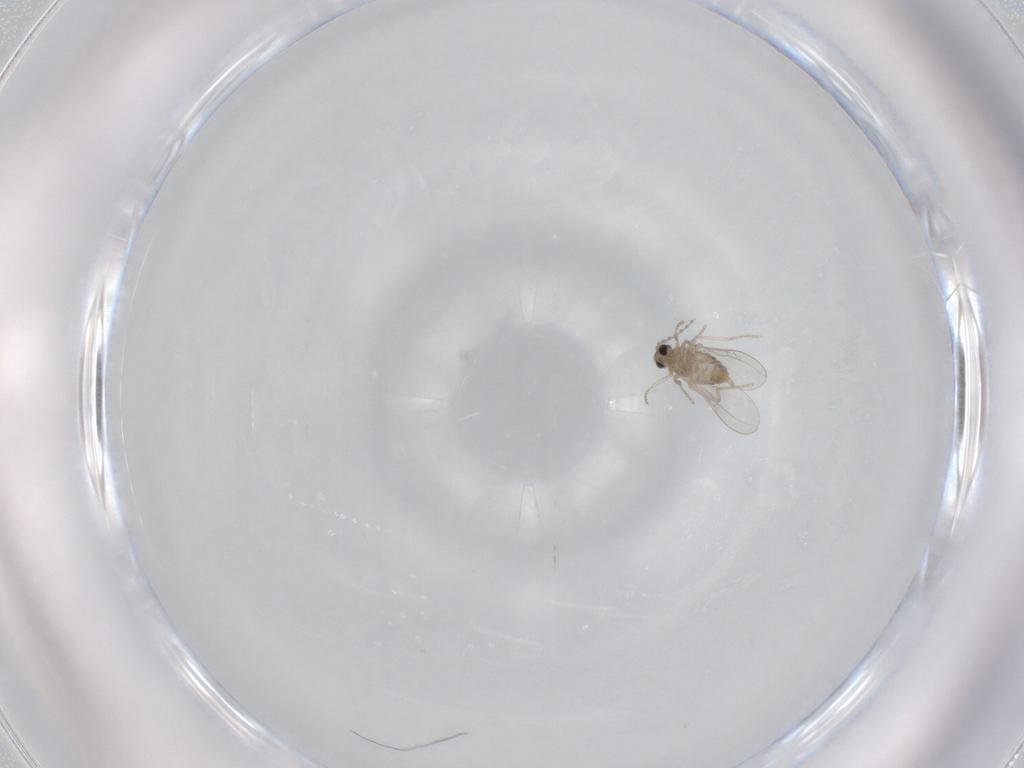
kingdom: Animalia
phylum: Arthropoda
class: Insecta
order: Diptera
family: Cecidomyiidae
